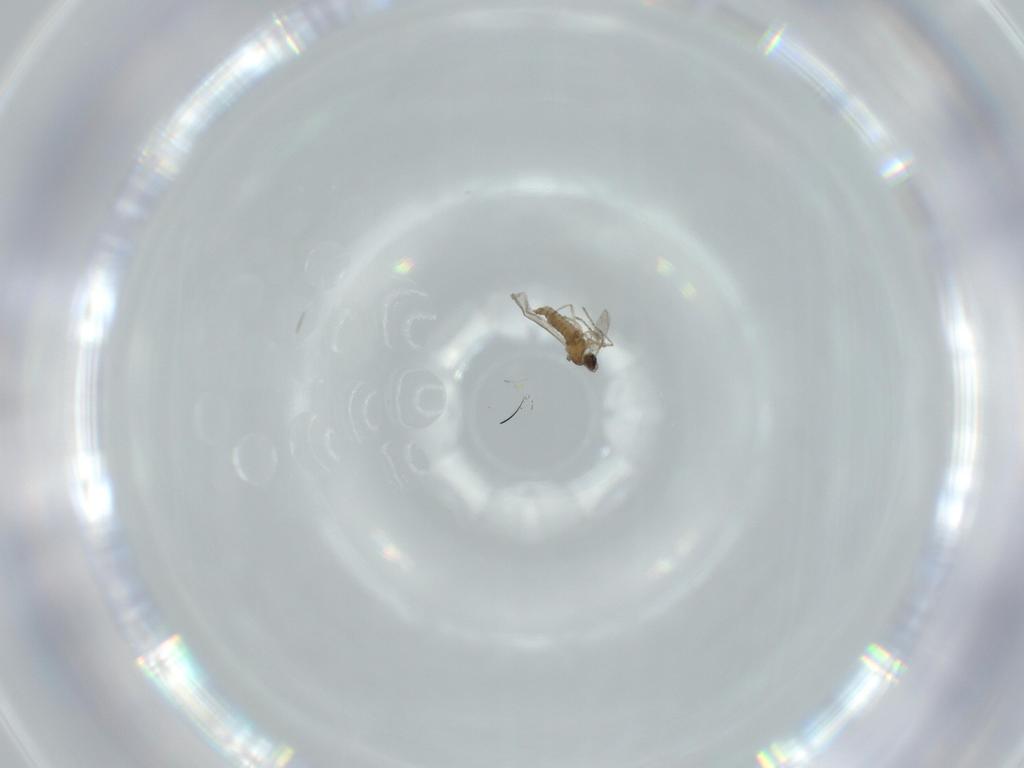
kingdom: Animalia
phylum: Arthropoda
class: Insecta
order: Diptera
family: Cecidomyiidae
